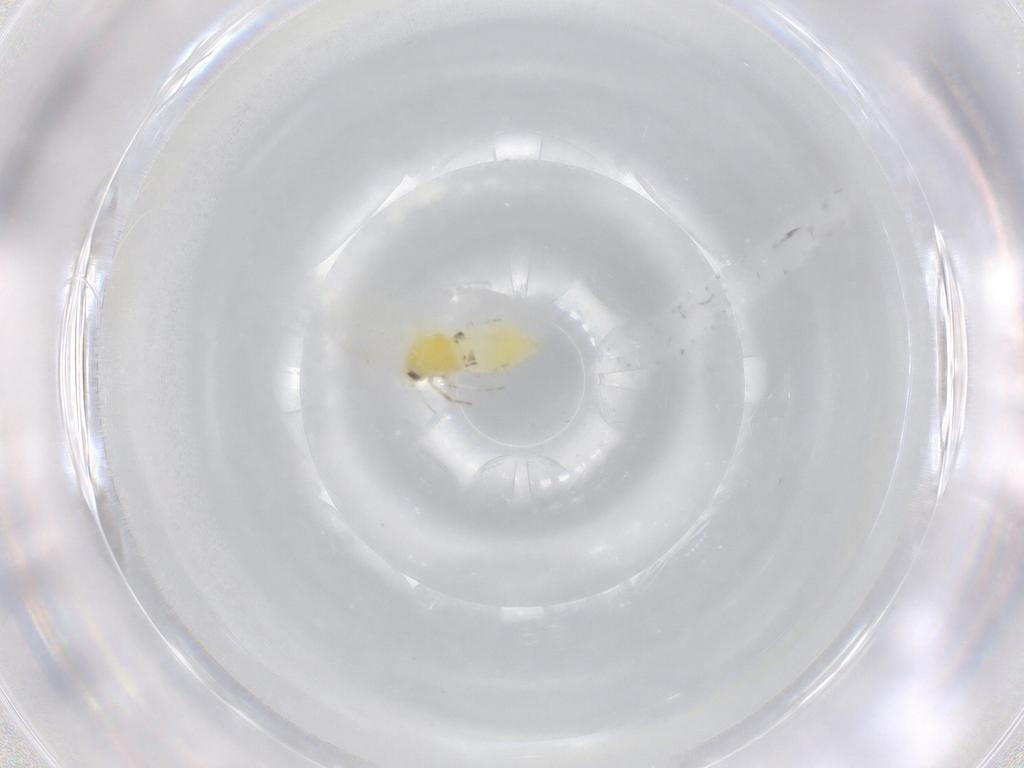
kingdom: Animalia
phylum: Arthropoda
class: Insecta
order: Hemiptera
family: Aleyrodidae
